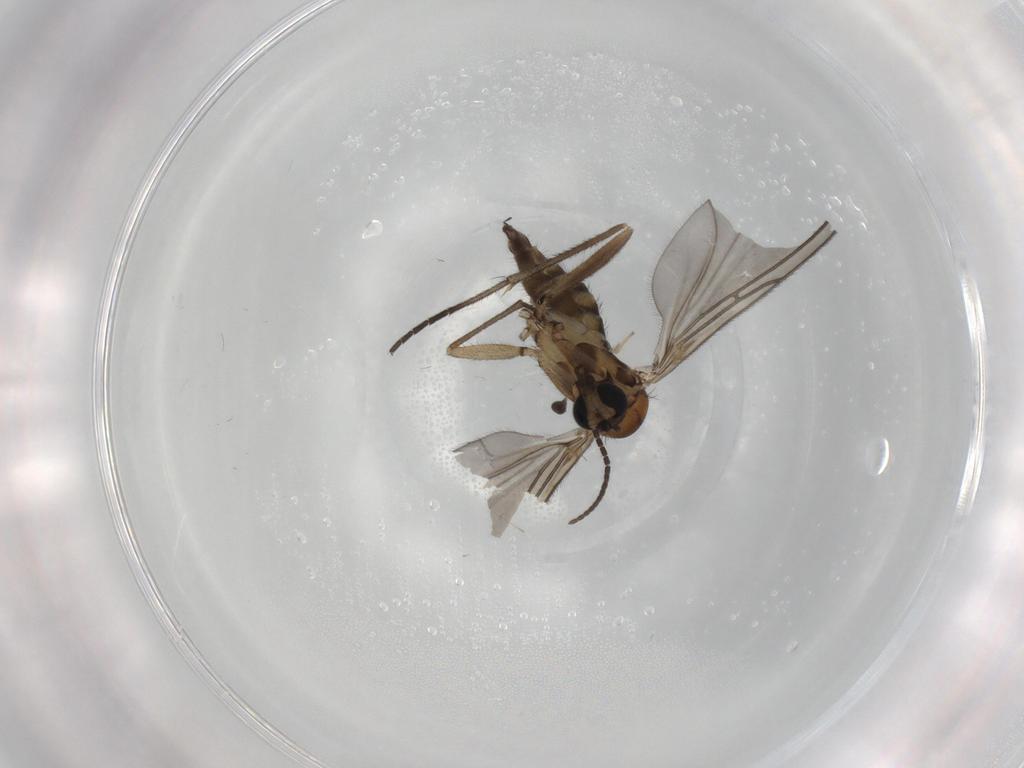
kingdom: Animalia
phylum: Arthropoda
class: Insecta
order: Diptera
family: Sciaridae
